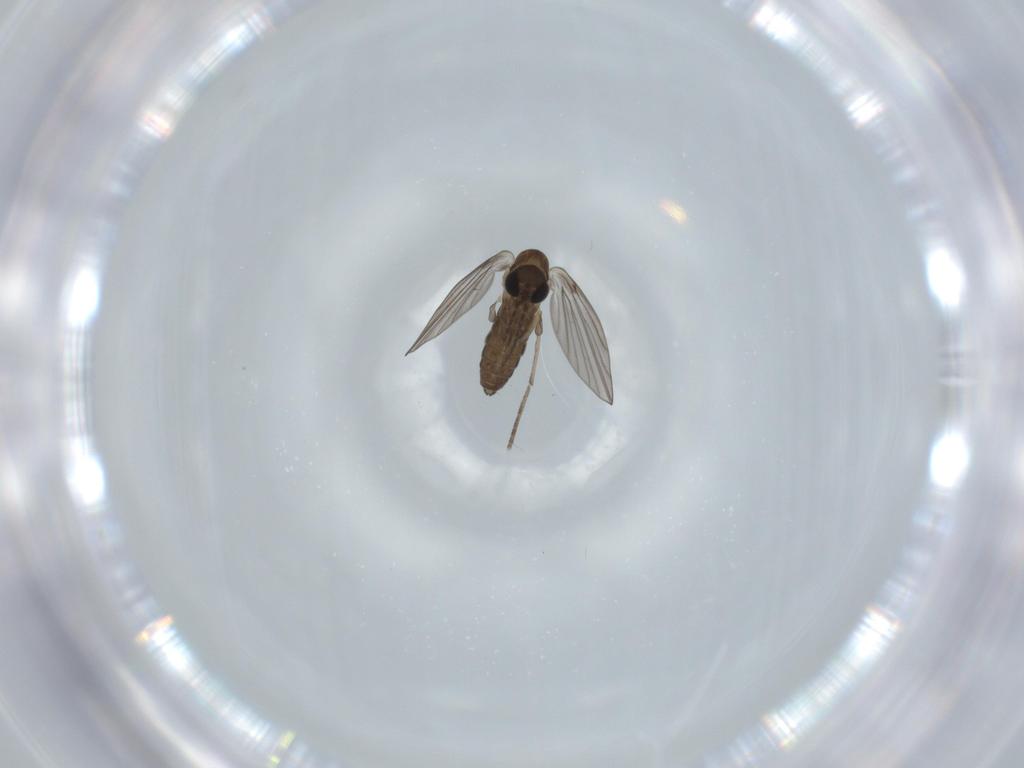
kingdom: Animalia
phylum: Arthropoda
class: Insecta
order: Diptera
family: Psychodidae
